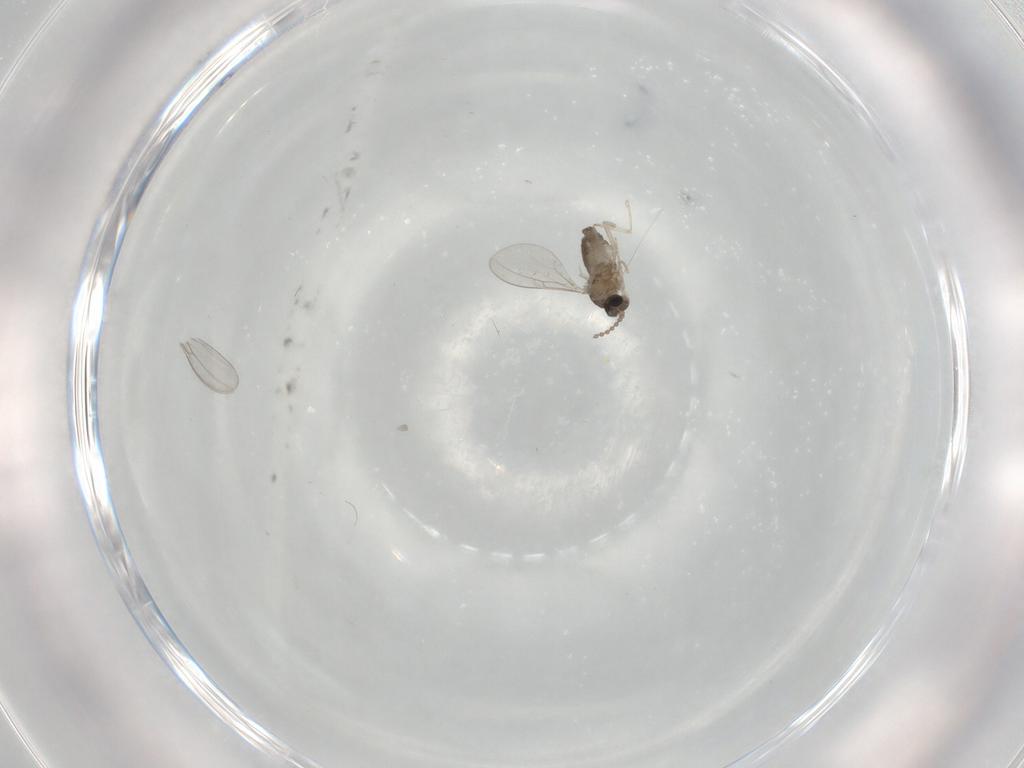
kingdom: Animalia
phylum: Arthropoda
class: Insecta
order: Diptera
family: Cecidomyiidae
